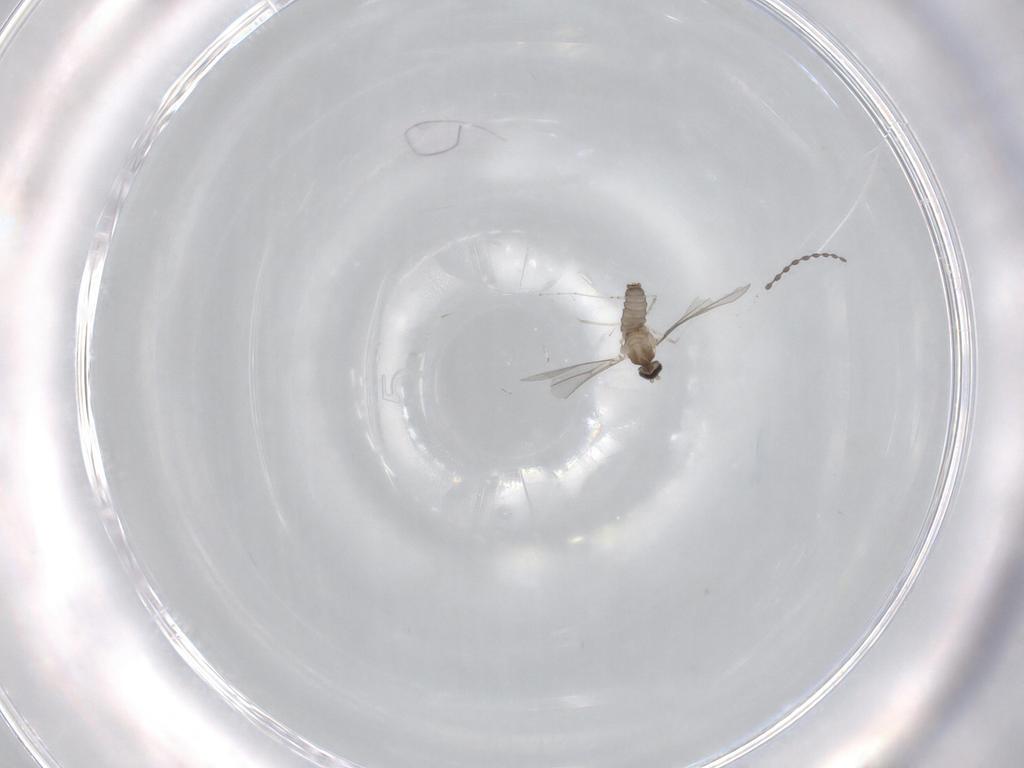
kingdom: Animalia
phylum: Arthropoda
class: Insecta
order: Diptera
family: Cecidomyiidae
